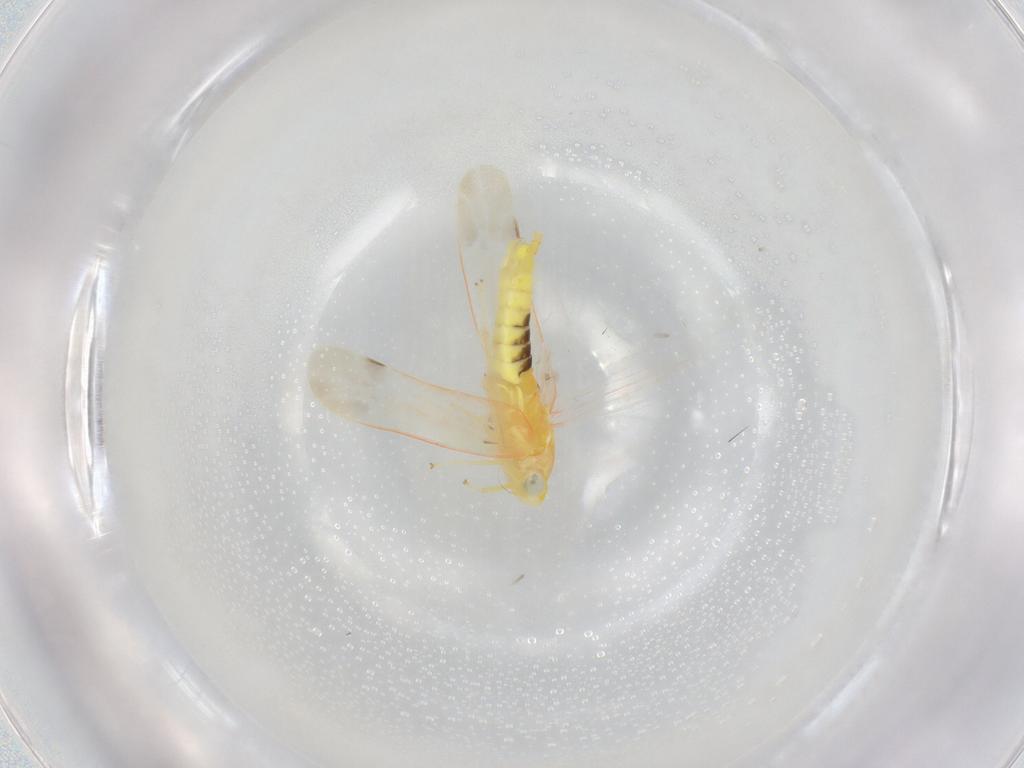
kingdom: Animalia
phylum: Arthropoda
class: Insecta
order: Hemiptera
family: Cicadellidae
